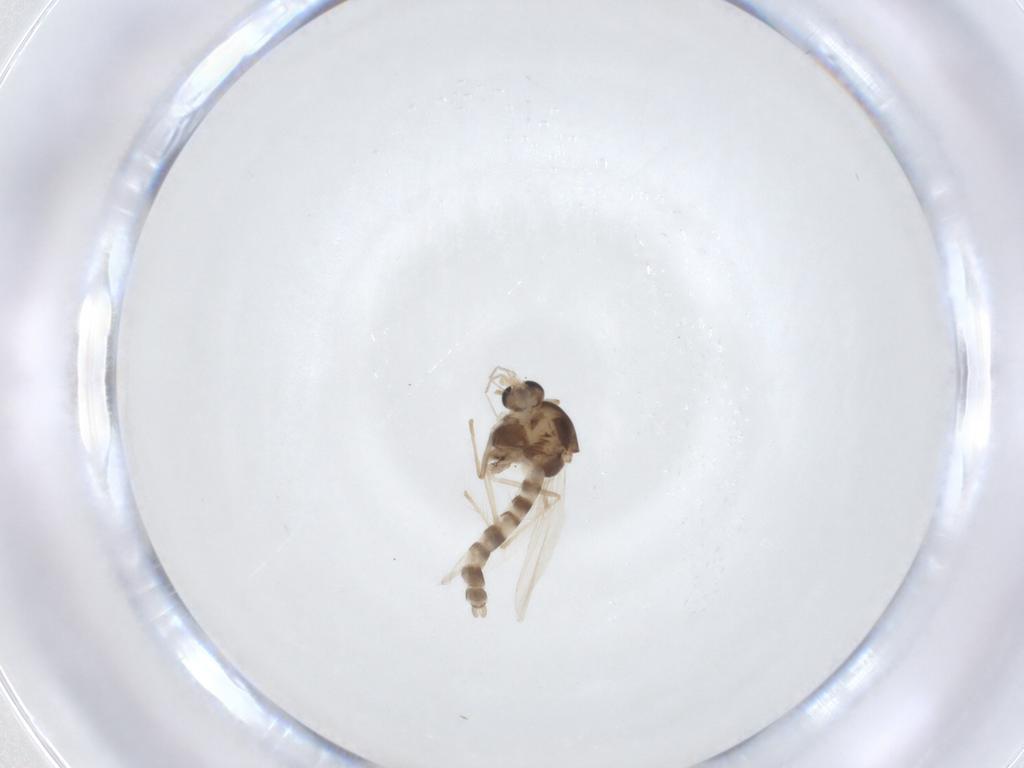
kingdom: Animalia
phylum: Arthropoda
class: Insecta
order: Diptera
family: Chironomidae
